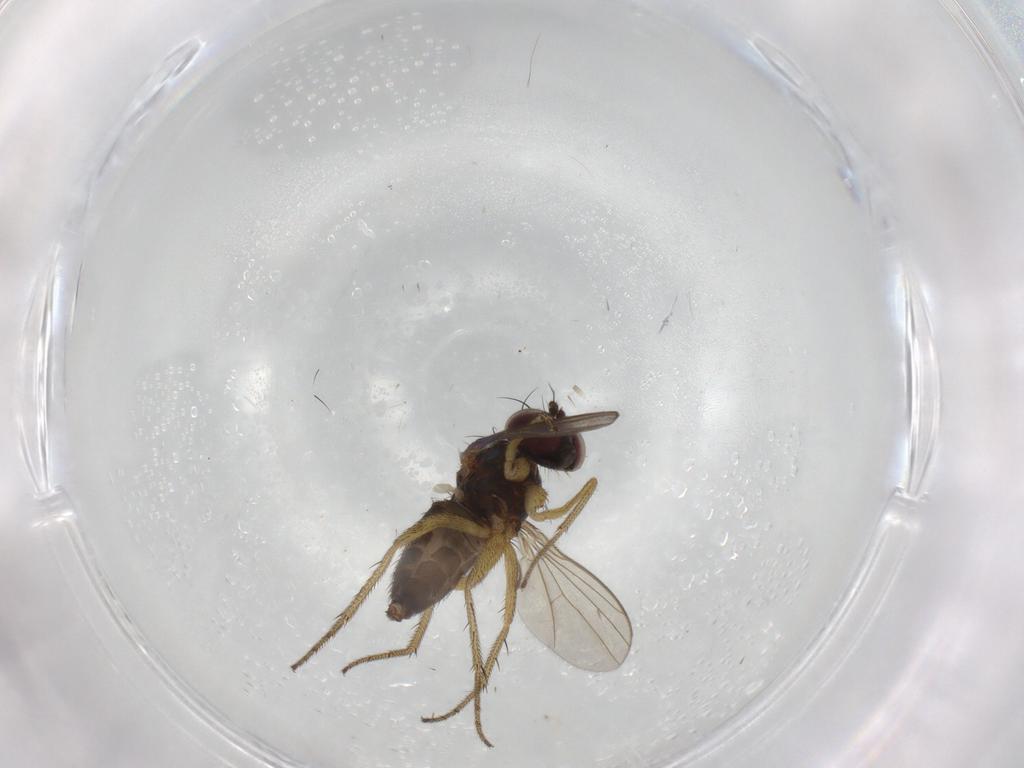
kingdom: Animalia
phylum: Arthropoda
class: Insecta
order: Diptera
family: Dolichopodidae
